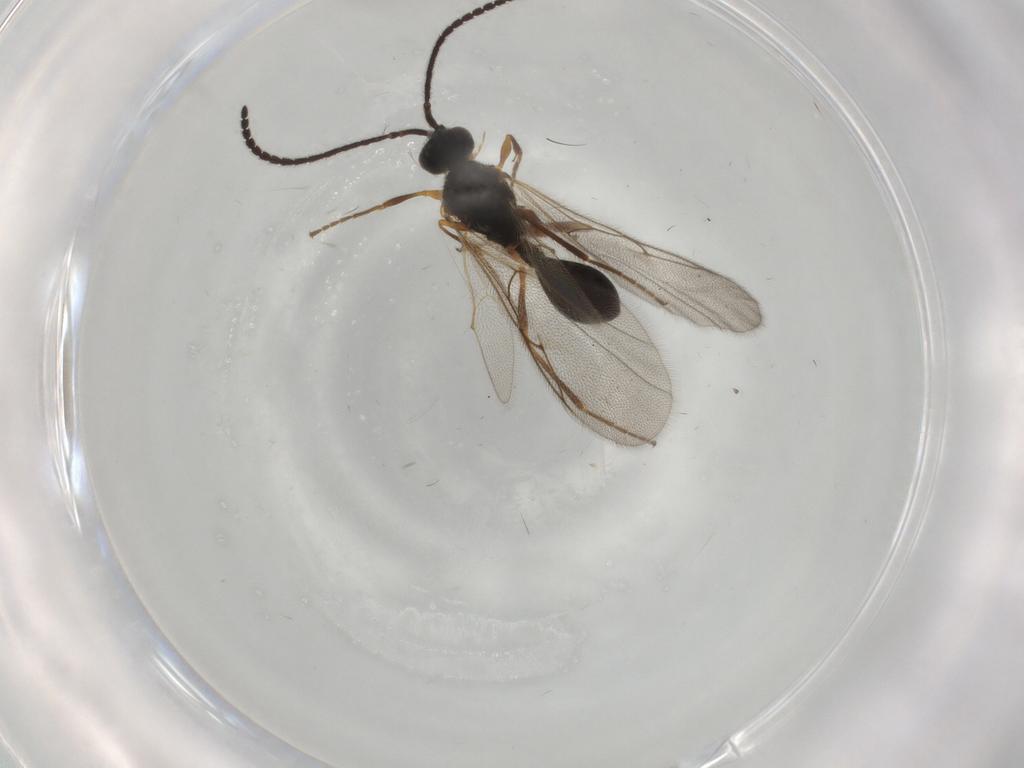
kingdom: Animalia
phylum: Arthropoda
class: Insecta
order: Hymenoptera
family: Diapriidae
